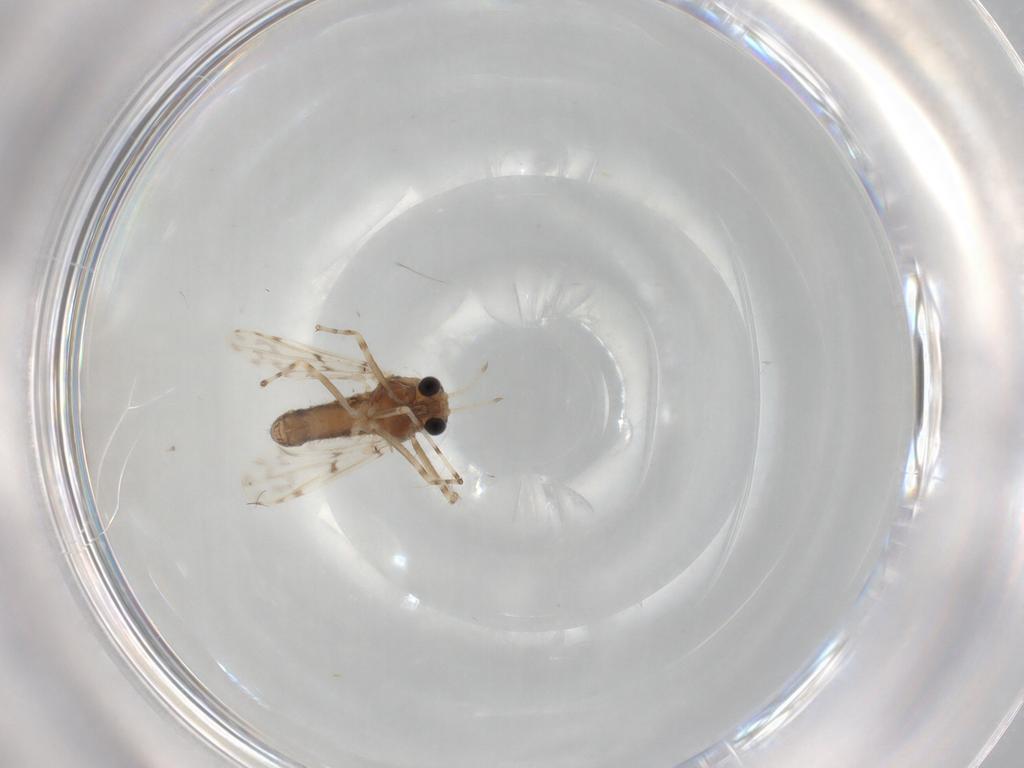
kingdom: Animalia
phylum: Arthropoda
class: Insecta
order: Diptera
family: Chironomidae
